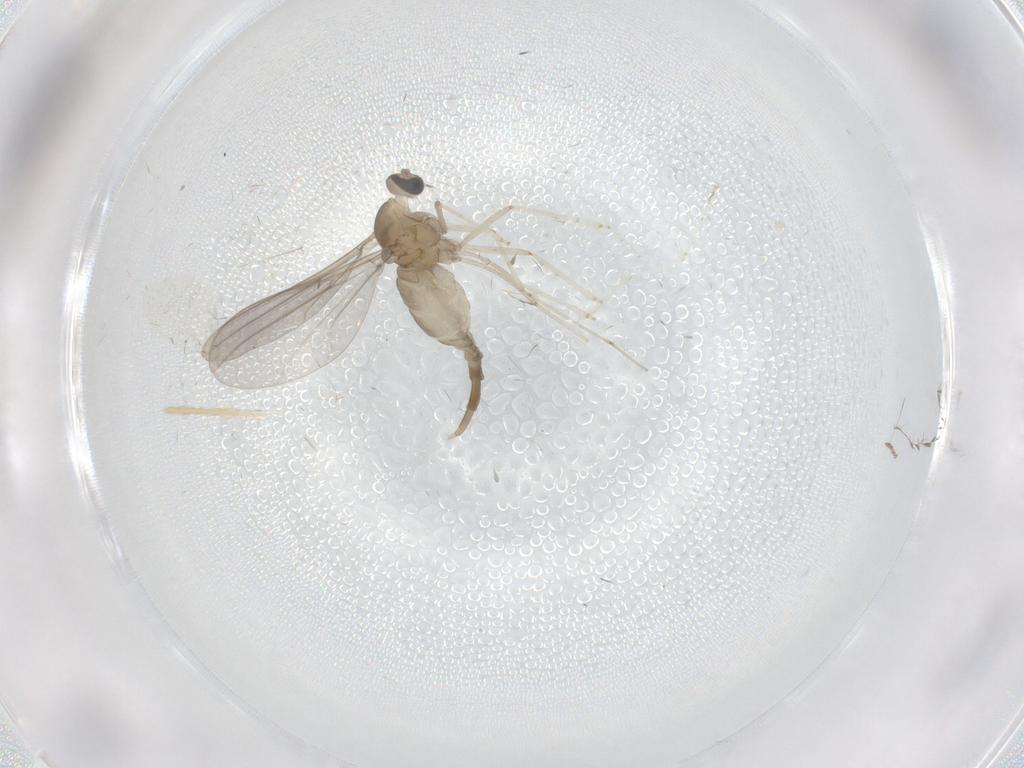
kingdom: Animalia
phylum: Arthropoda
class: Insecta
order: Diptera
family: Cecidomyiidae
